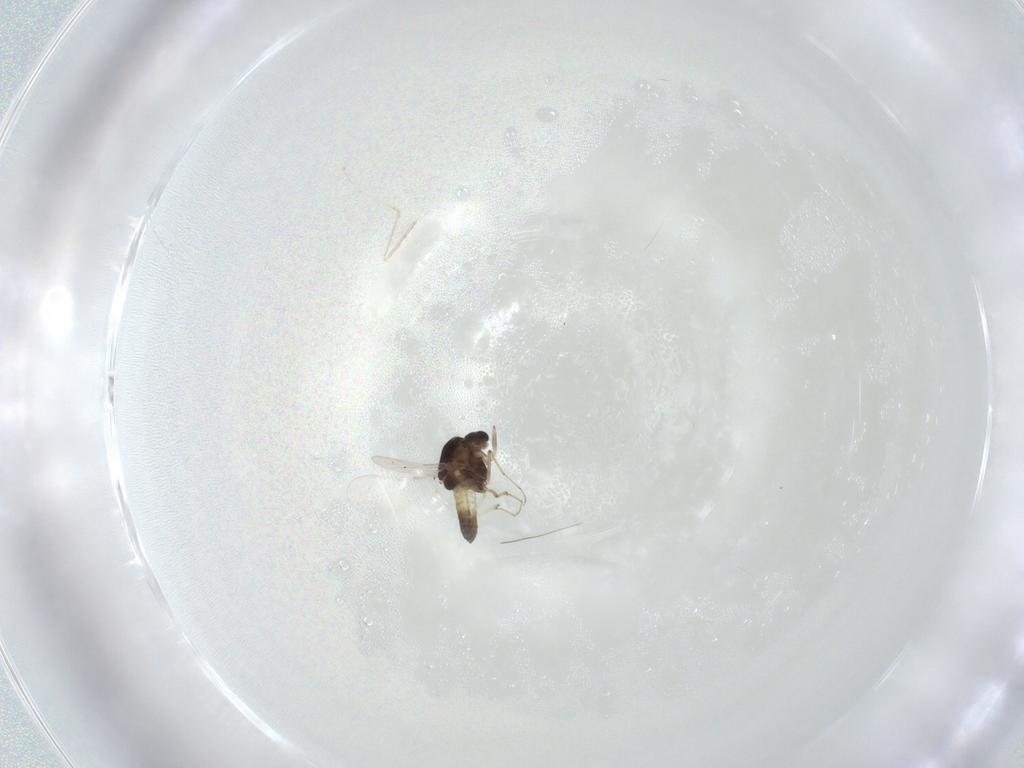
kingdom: Animalia
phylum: Arthropoda
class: Insecta
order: Diptera
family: Chironomidae
